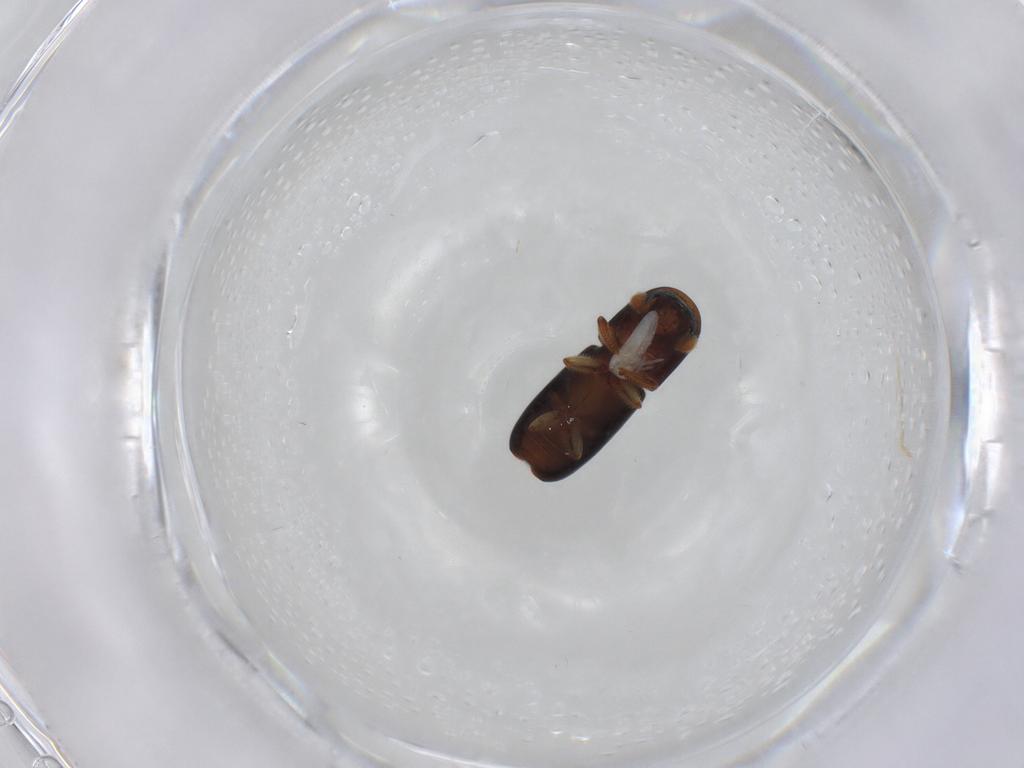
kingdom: Animalia
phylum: Arthropoda
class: Insecta
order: Coleoptera
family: Curculionidae
